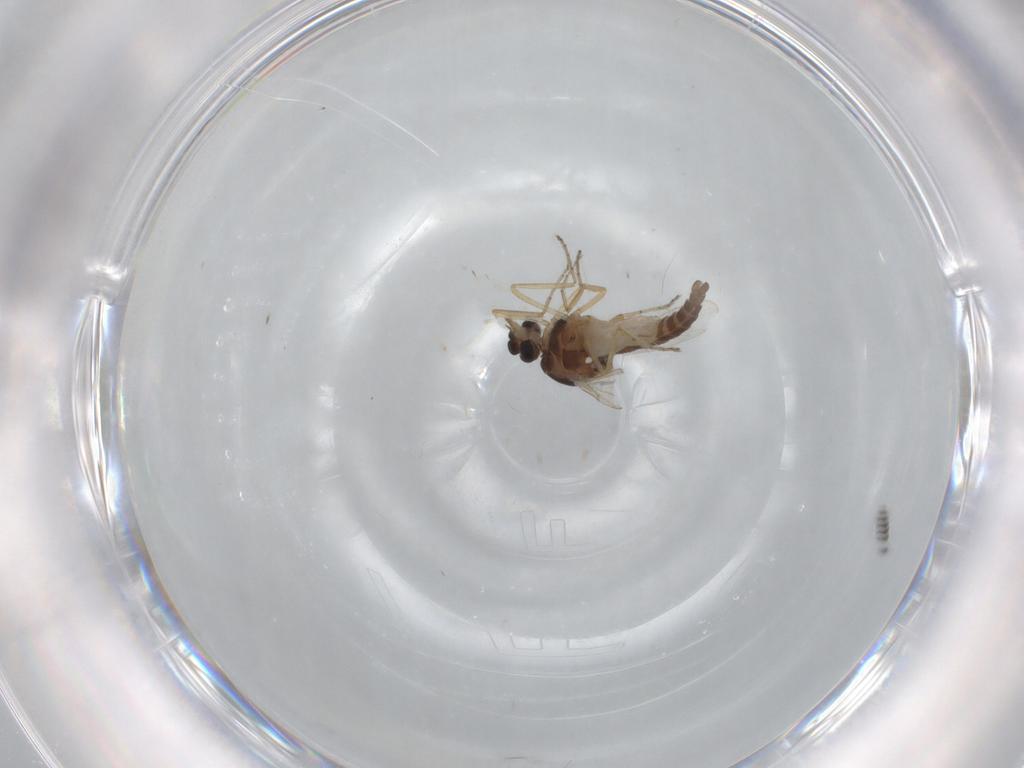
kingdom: Animalia
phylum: Arthropoda
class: Insecta
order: Diptera
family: Ceratopogonidae
